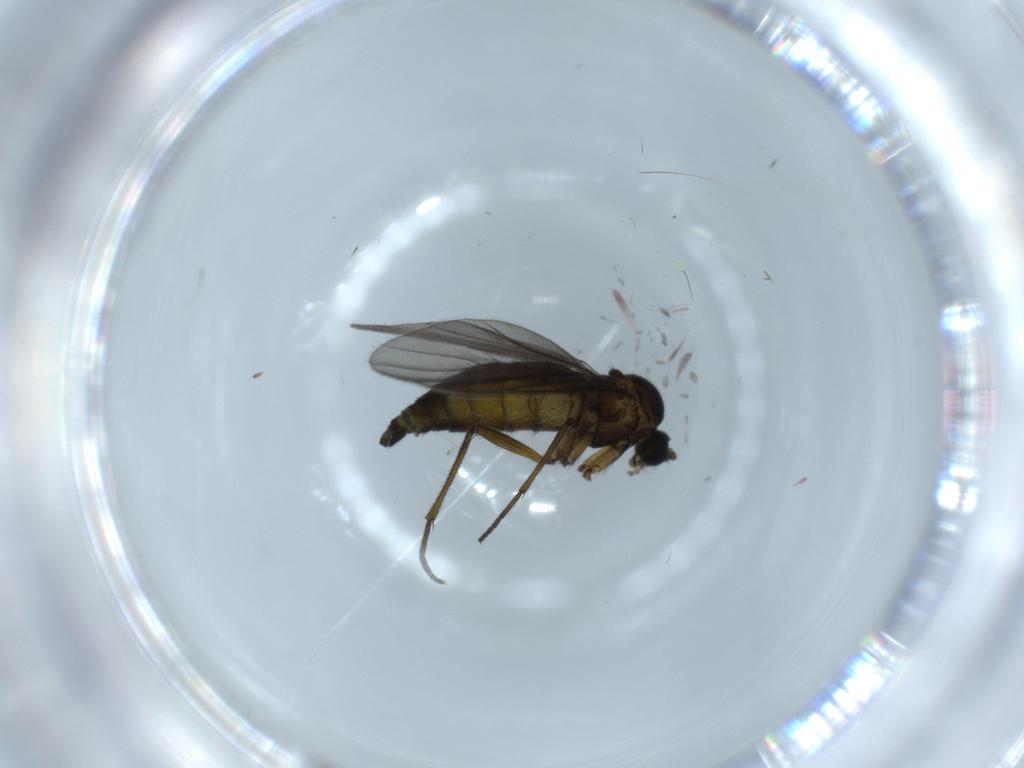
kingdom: Animalia
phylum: Arthropoda
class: Insecta
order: Diptera
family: Sciaridae
